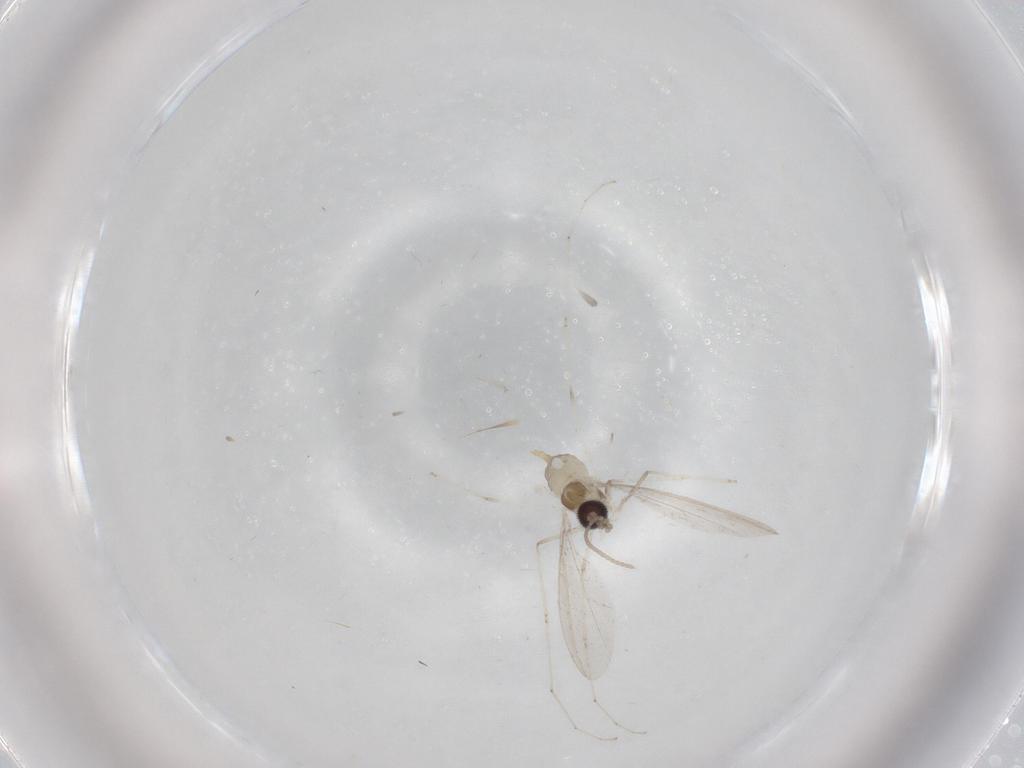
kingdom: Animalia
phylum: Arthropoda
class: Insecta
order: Diptera
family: Cecidomyiidae
